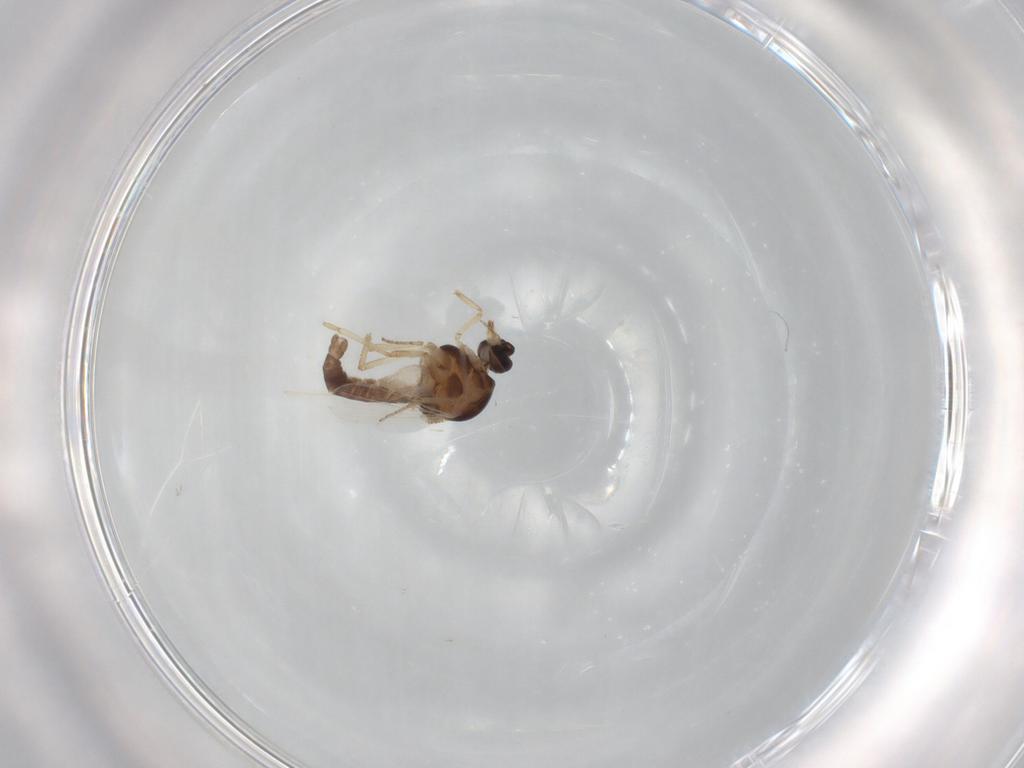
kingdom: Animalia
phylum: Arthropoda
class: Insecta
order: Diptera
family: Ceratopogonidae
